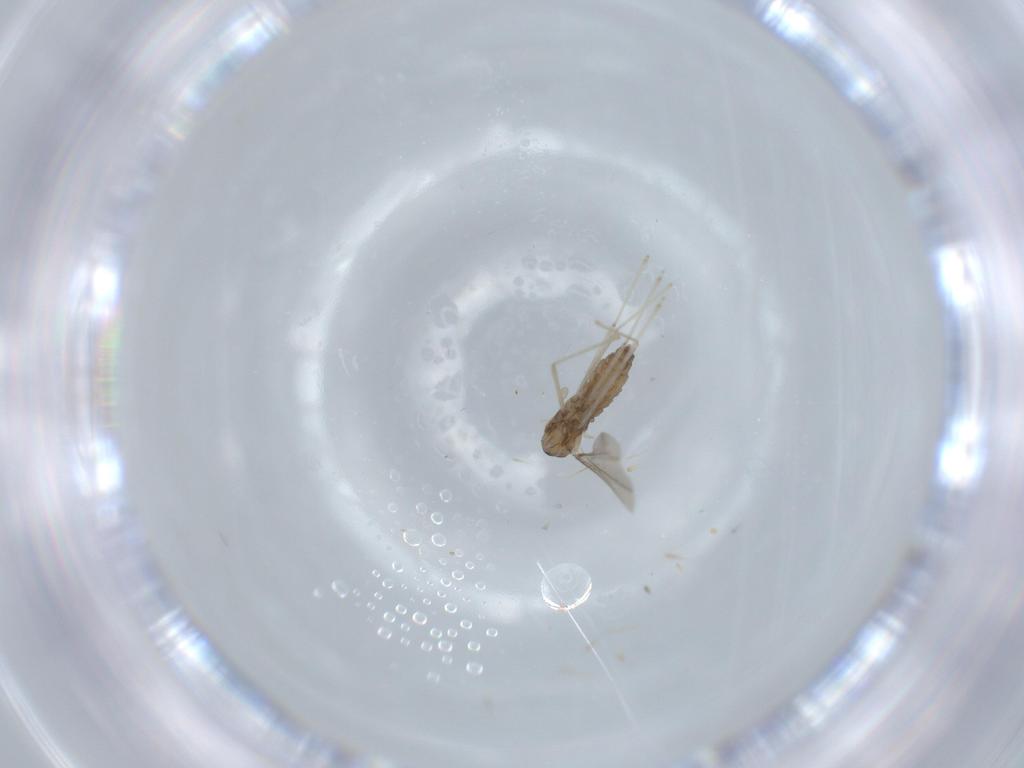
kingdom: Animalia
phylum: Arthropoda
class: Insecta
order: Diptera
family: Cecidomyiidae
